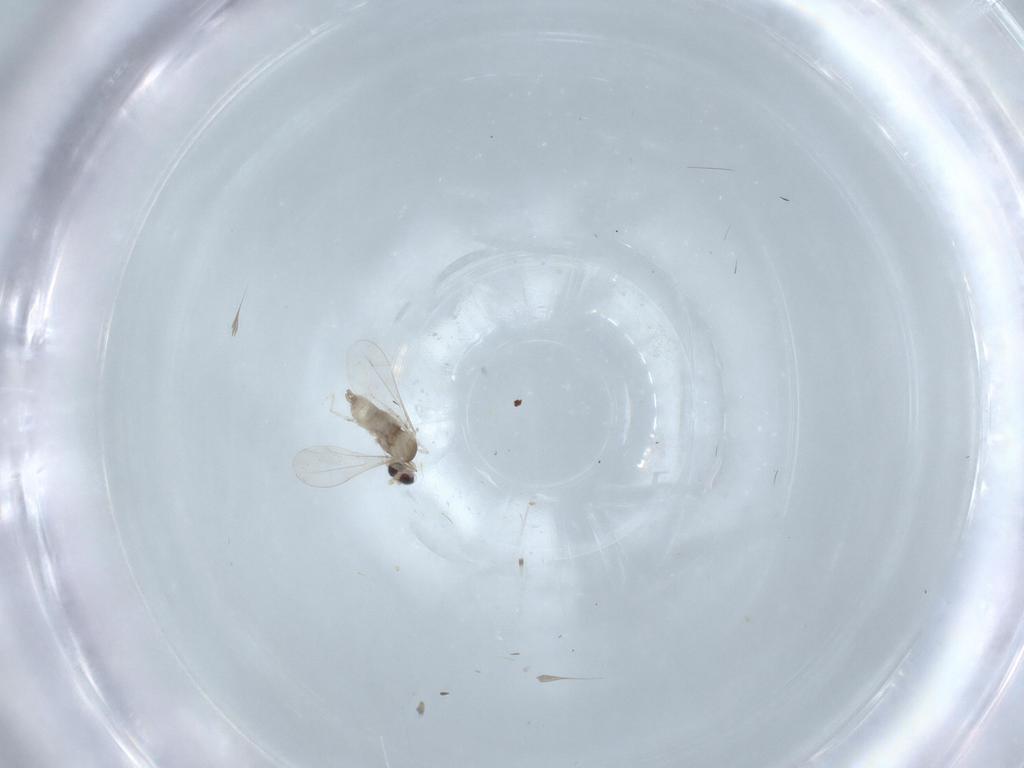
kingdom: Animalia
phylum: Arthropoda
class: Insecta
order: Diptera
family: Cecidomyiidae
